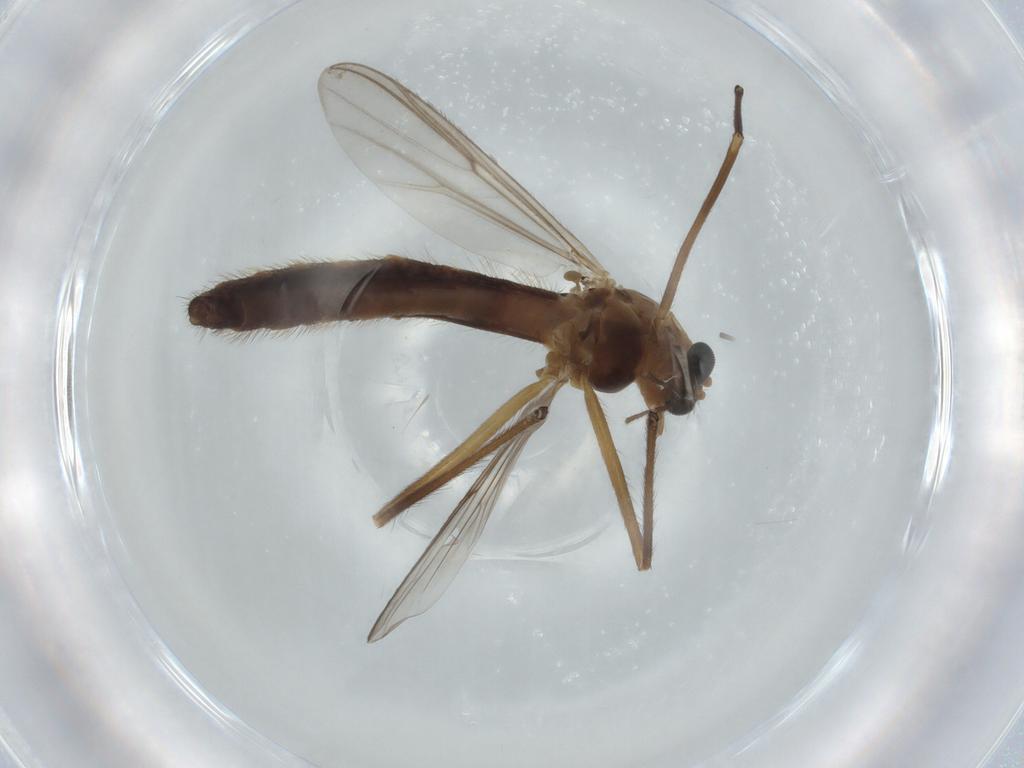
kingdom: Animalia
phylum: Arthropoda
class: Insecta
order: Diptera
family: Chironomidae
